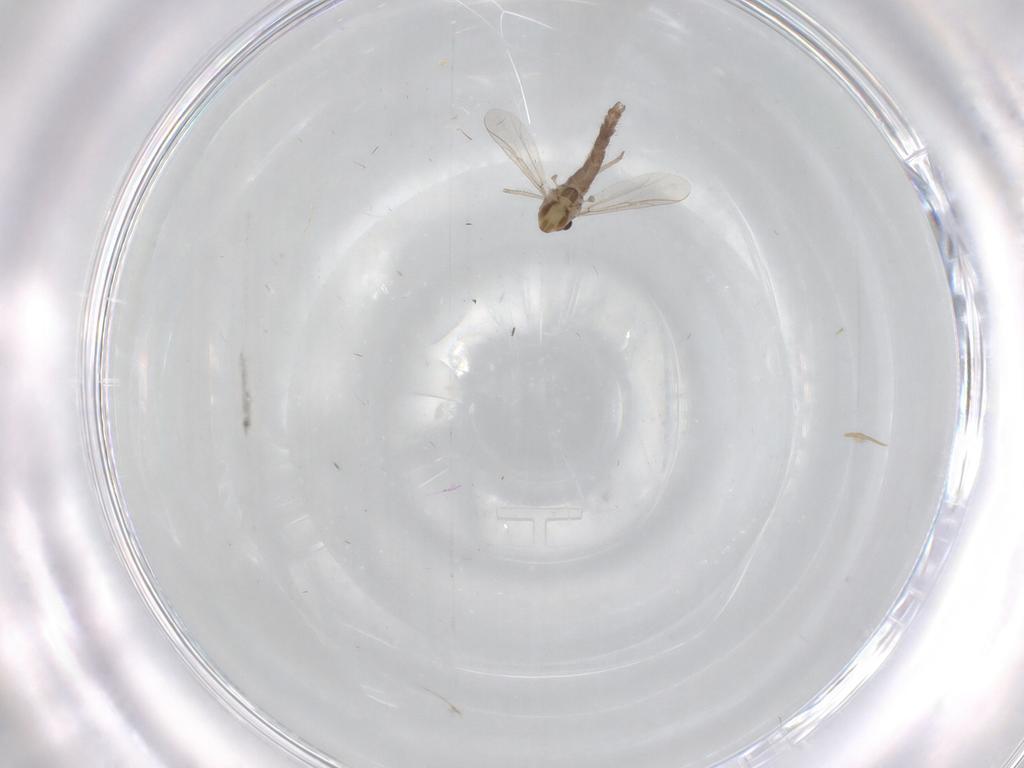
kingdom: Animalia
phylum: Arthropoda
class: Insecta
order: Diptera
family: Chironomidae
